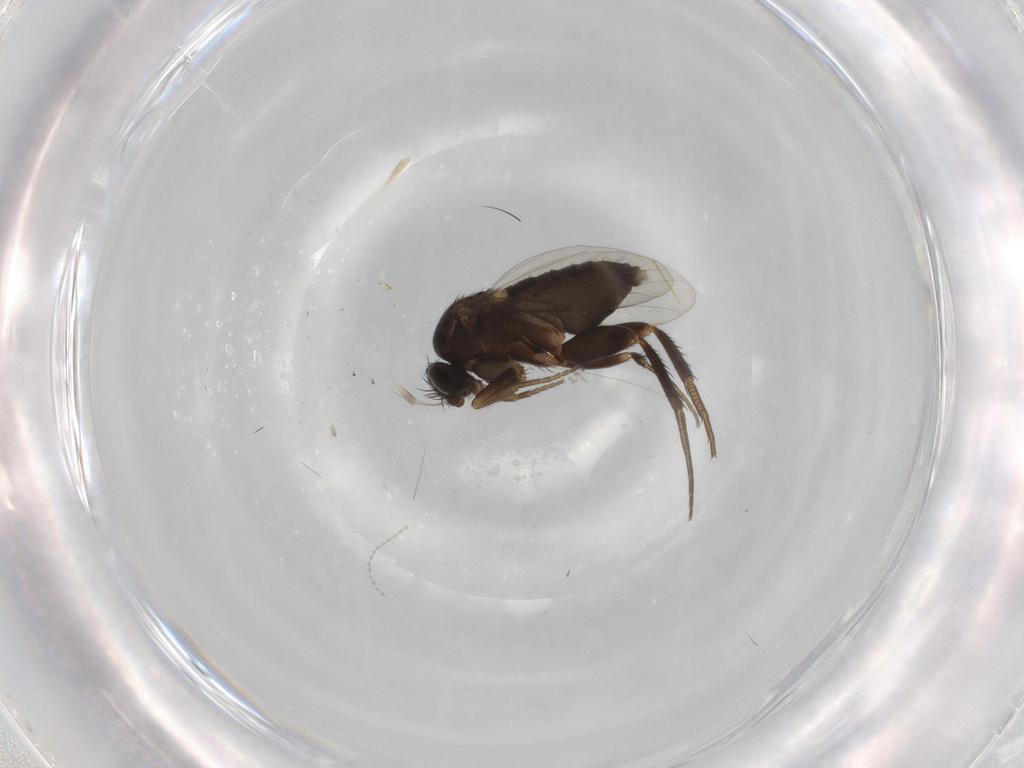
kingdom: Animalia
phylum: Arthropoda
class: Insecta
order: Diptera
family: Phoridae
